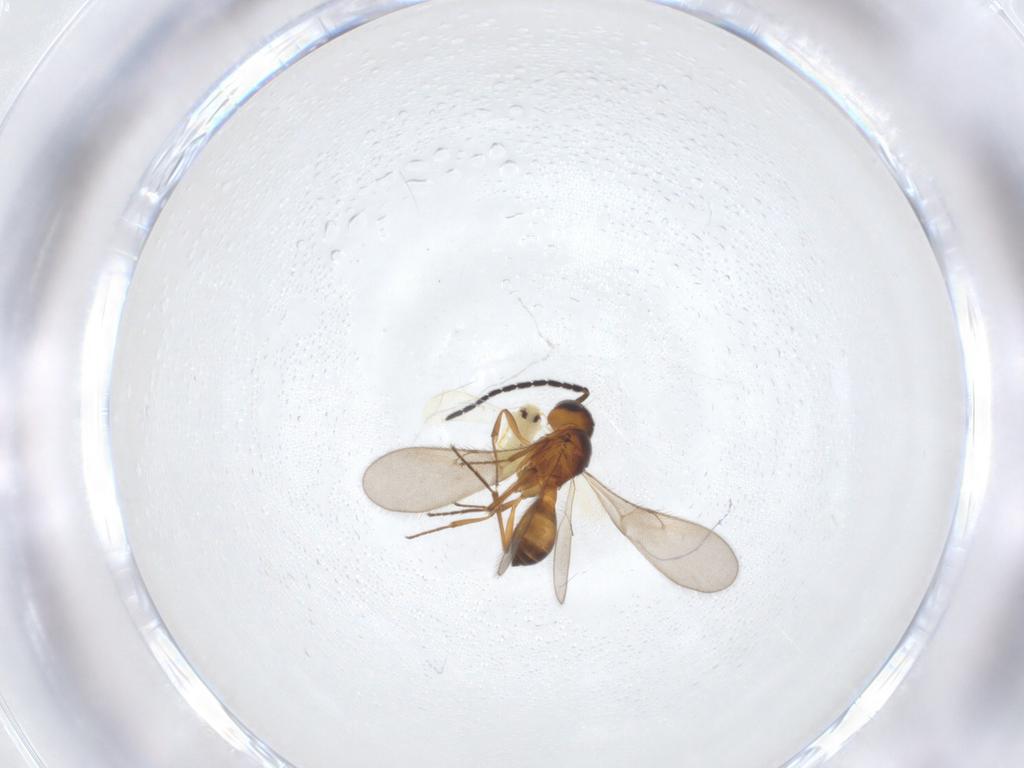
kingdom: Animalia
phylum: Arthropoda
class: Insecta
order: Hemiptera
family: Aleyrodidae
